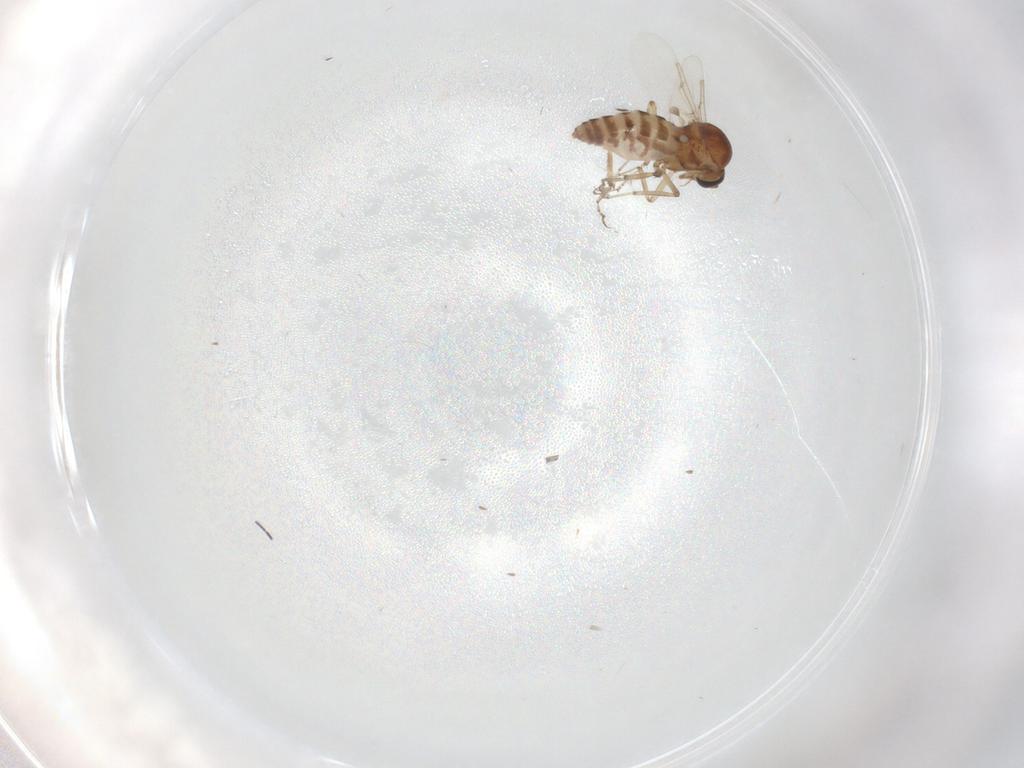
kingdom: Animalia
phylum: Arthropoda
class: Insecta
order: Diptera
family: Ceratopogonidae
